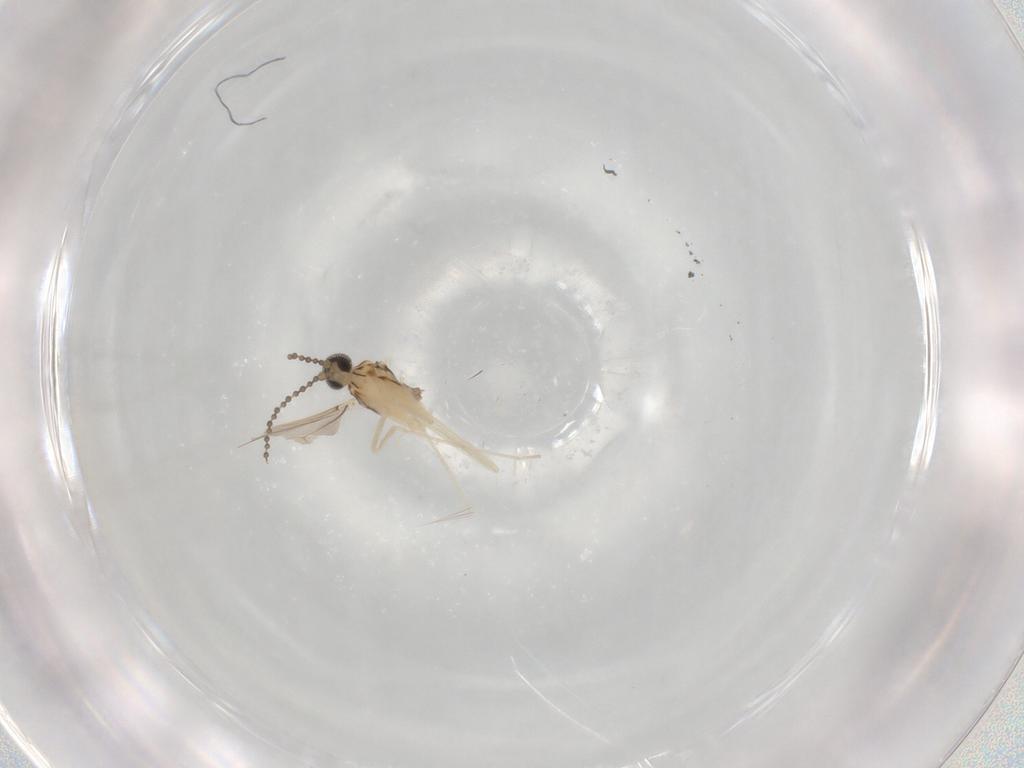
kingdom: Animalia
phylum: Arthropoda
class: Insecta
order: Diptera
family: Cecidomyiidae
